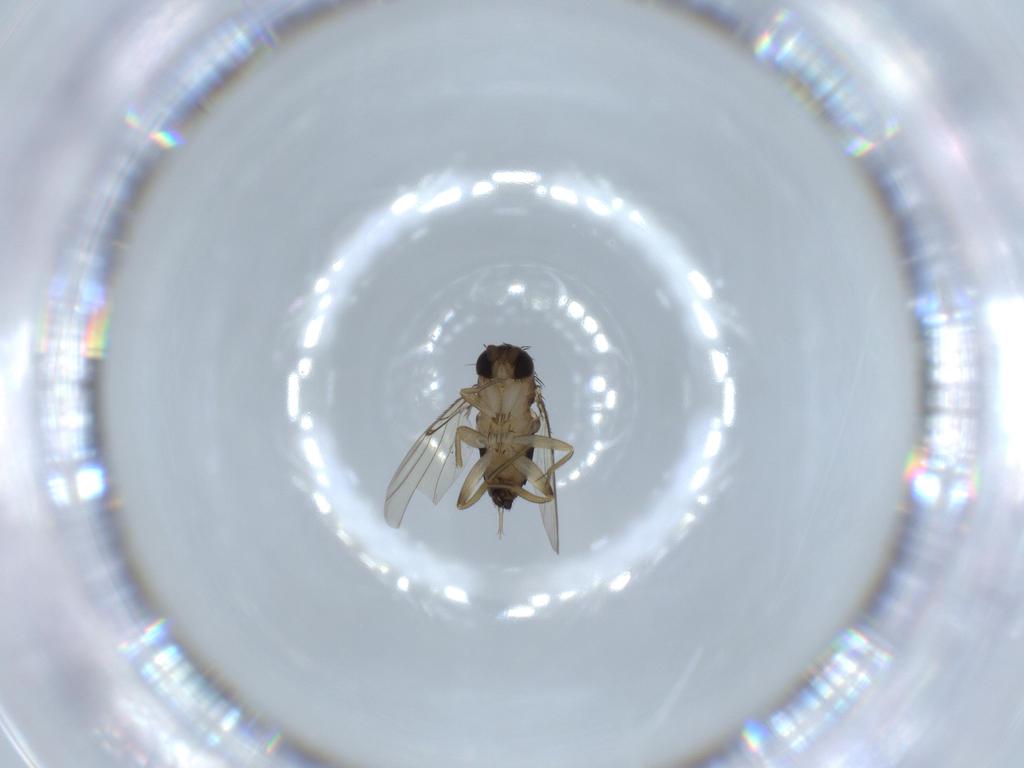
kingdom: Animalia
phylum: Arthropoda
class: Insecta
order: Diptera
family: Phoridae
